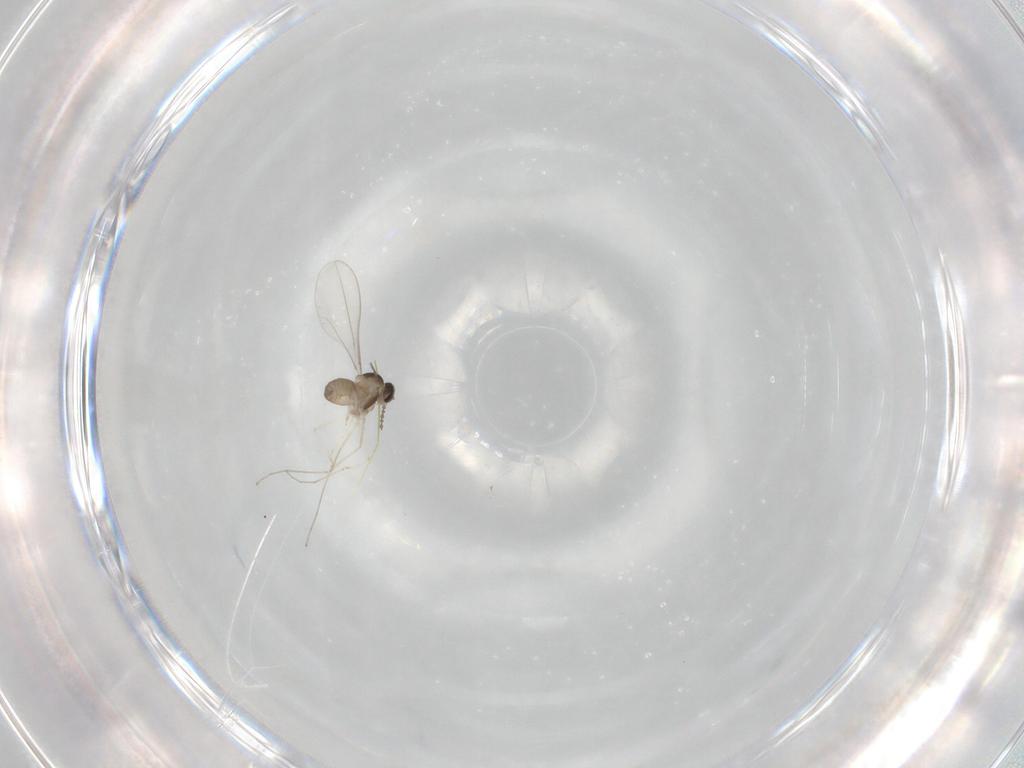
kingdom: Animalia
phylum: Arthropoda
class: Insecta
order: Diptera
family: Cecidomyiidae
